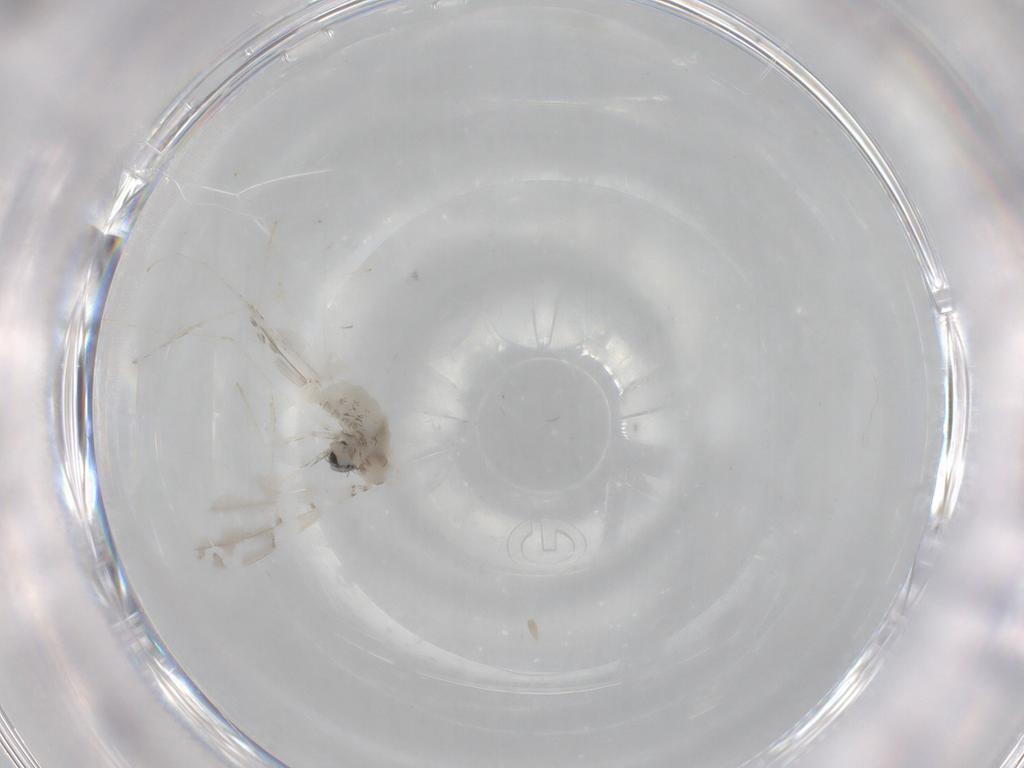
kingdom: Animalia
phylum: Arthropoda
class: Insecta
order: Diptera
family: Cecidomyiidae
